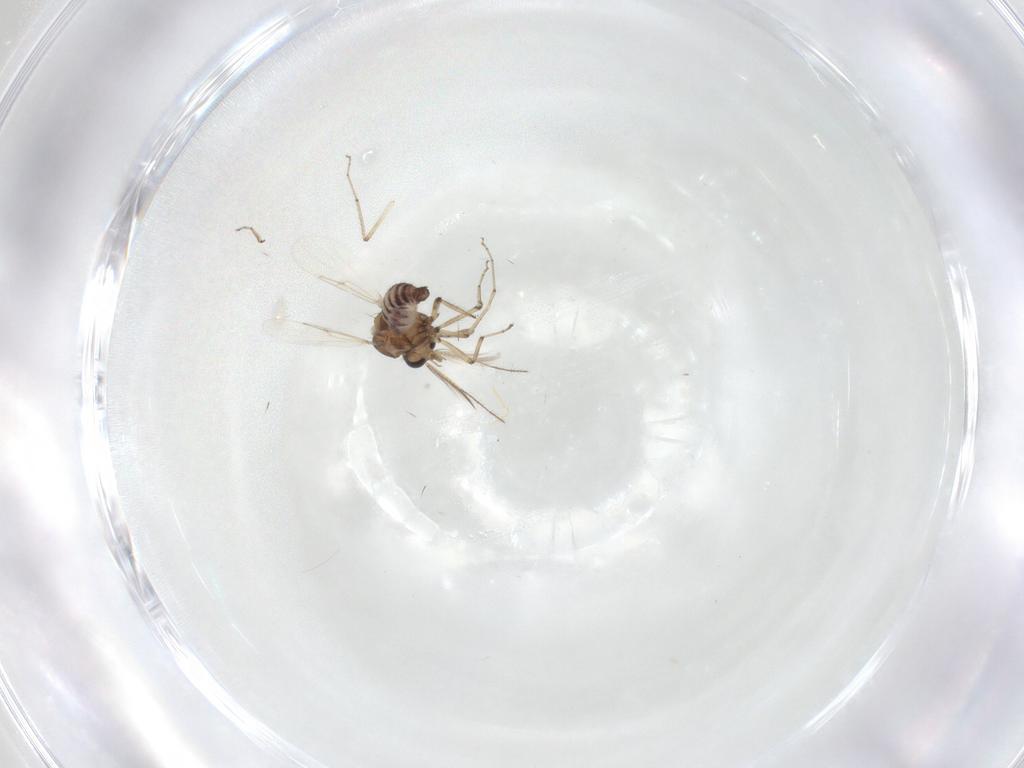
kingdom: Animalia
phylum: Arthropoda
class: Insecta
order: Diptera
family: Ceratopogonidae
